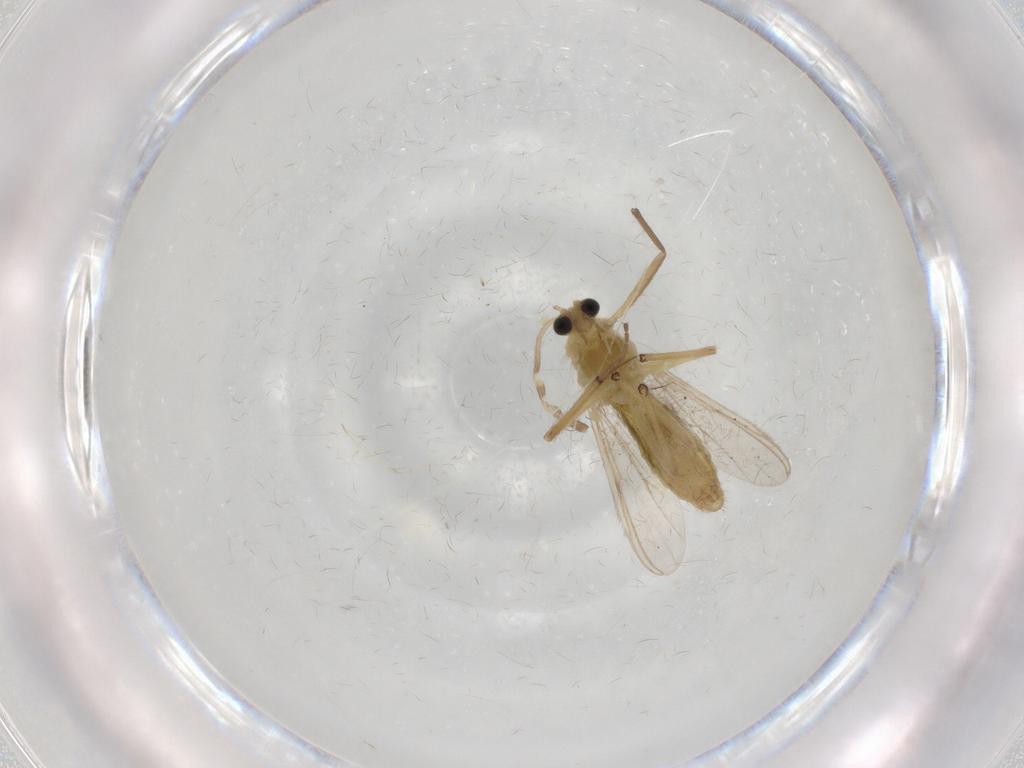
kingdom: Animalia
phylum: Arthropoda
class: Insecta
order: Diptera
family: Chironomidae
